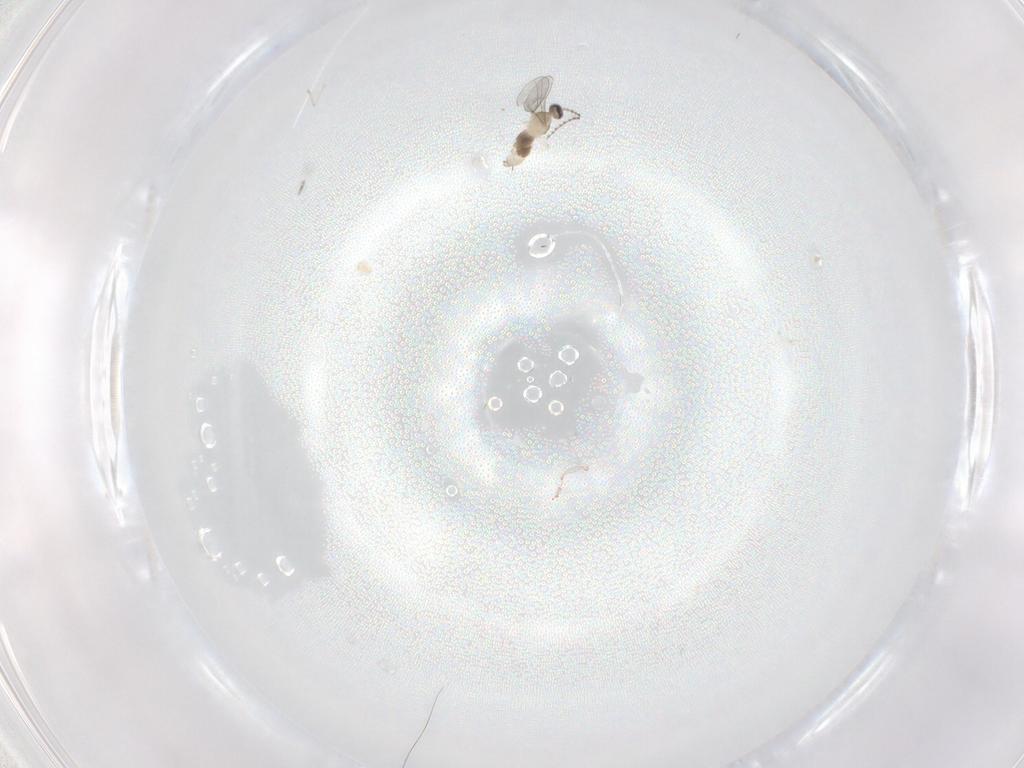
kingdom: Animalia
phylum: Arthropoda
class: Insecta
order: Diptera
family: Cecidomyiidae
